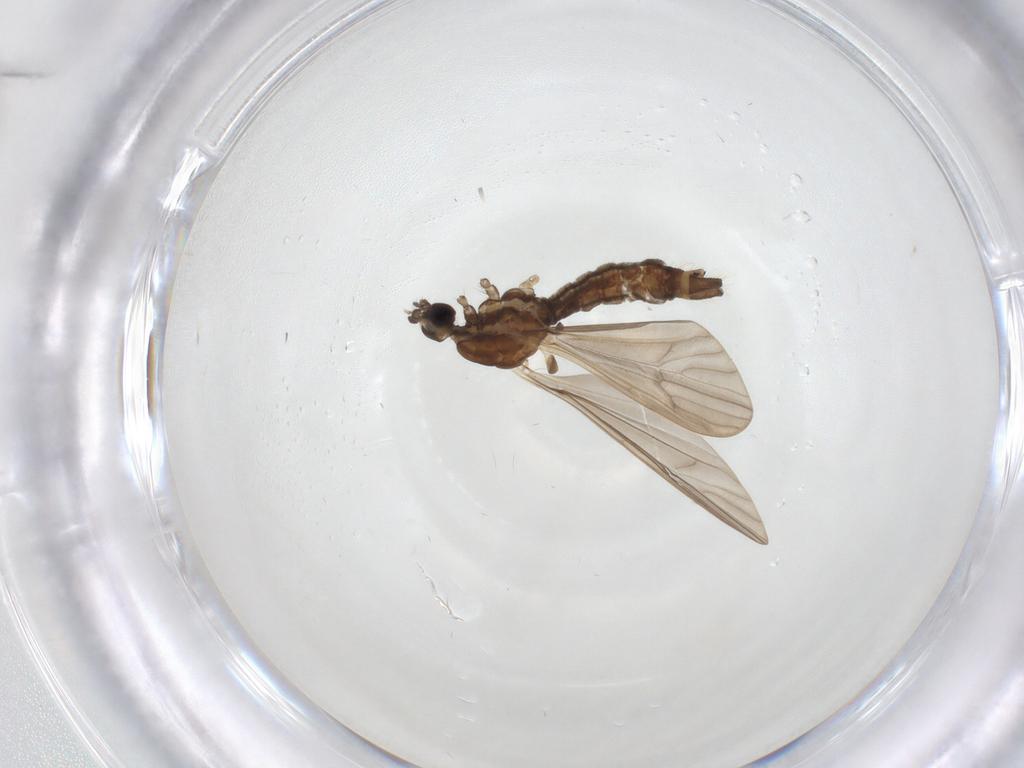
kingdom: Animalia
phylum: Arthropoda
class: Insecta
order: Diptera
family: Limoniidae
